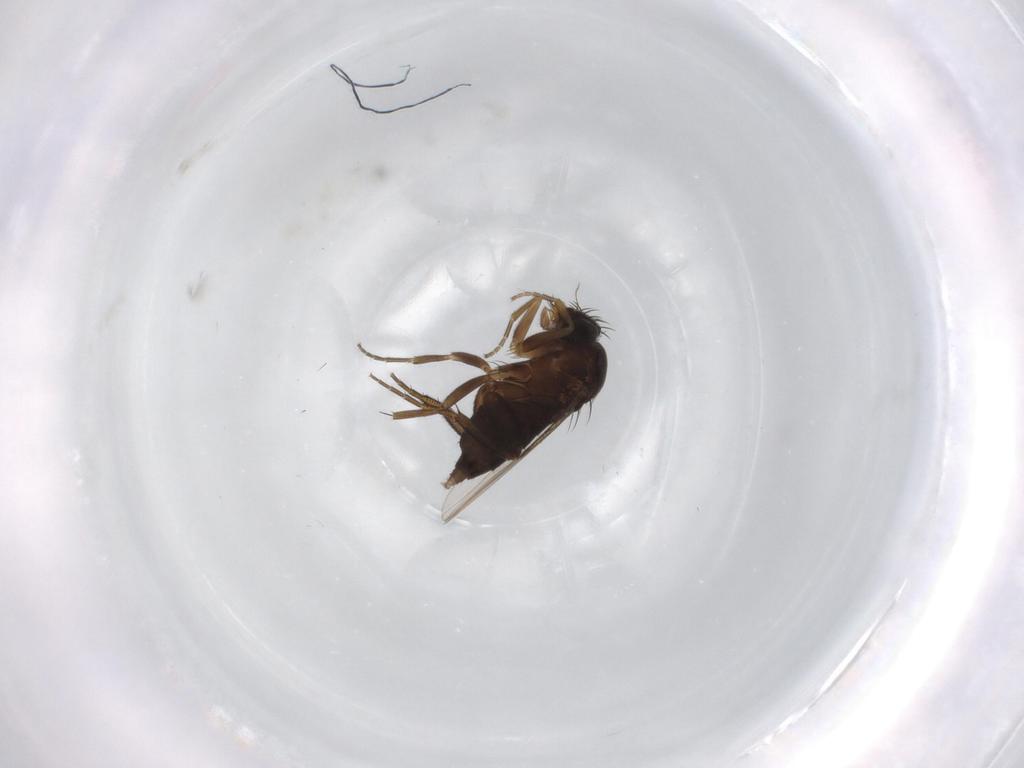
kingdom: Animalia
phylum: Arthropoda
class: Insecta
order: Diptera
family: Phoridae
